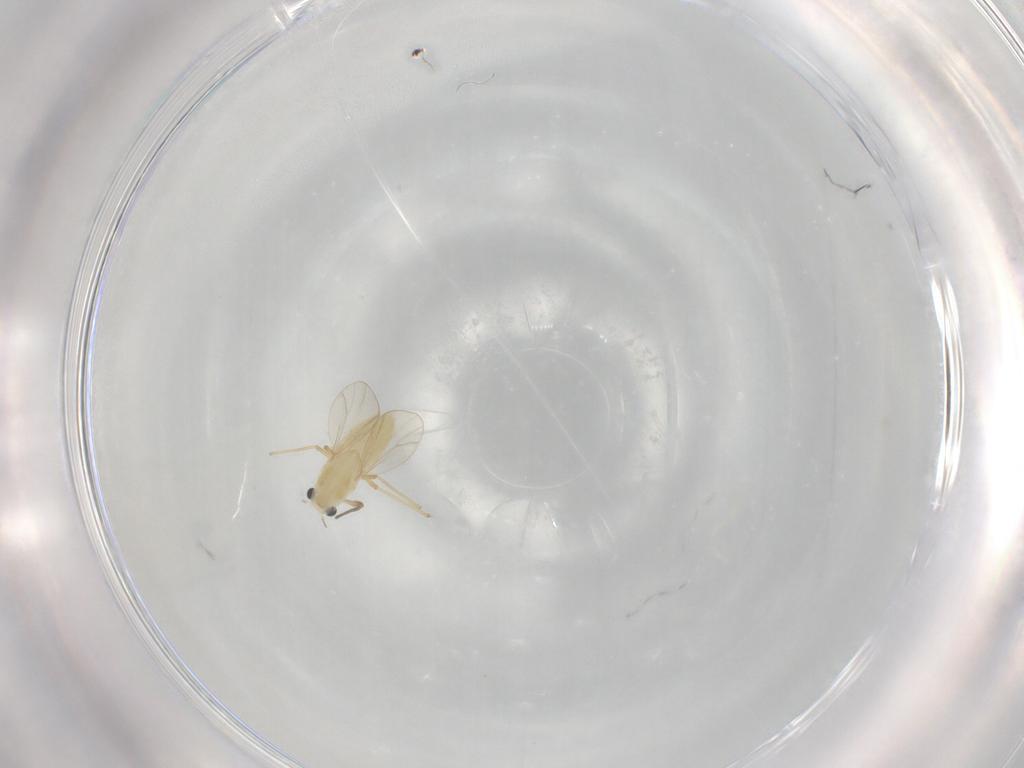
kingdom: Animalia
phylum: Arthropoda
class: Insecta
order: Diptera
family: Chironomidae
